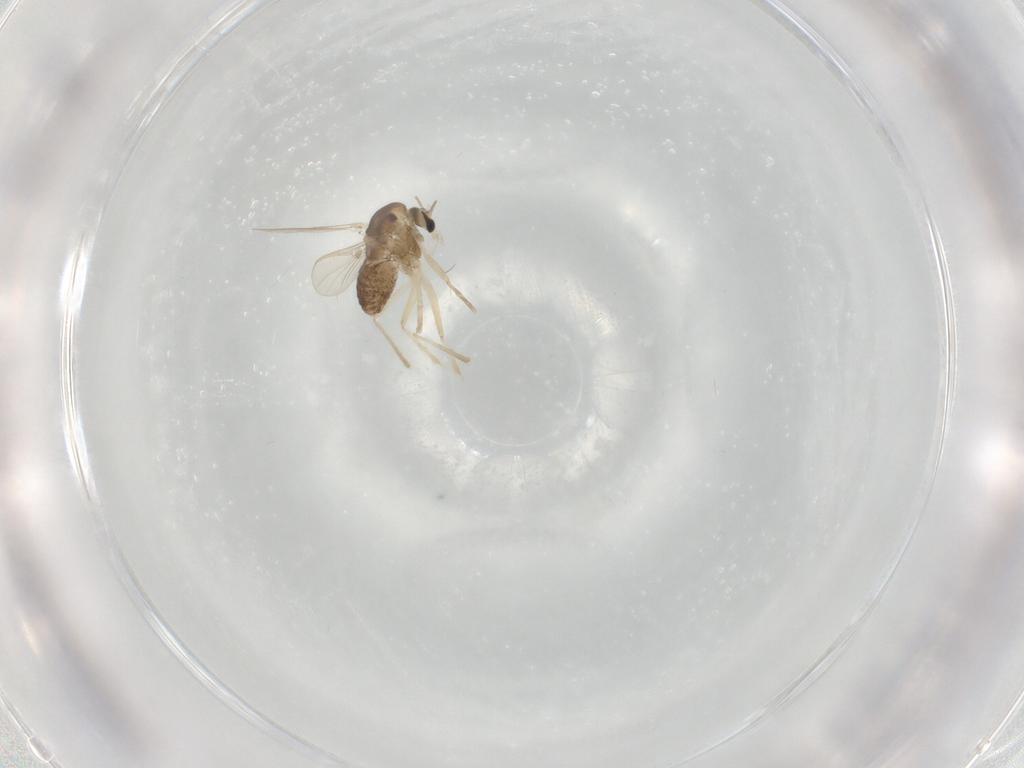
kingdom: Animalia
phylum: Arthropoda
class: Insecta
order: Diptera
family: Chironomidae
